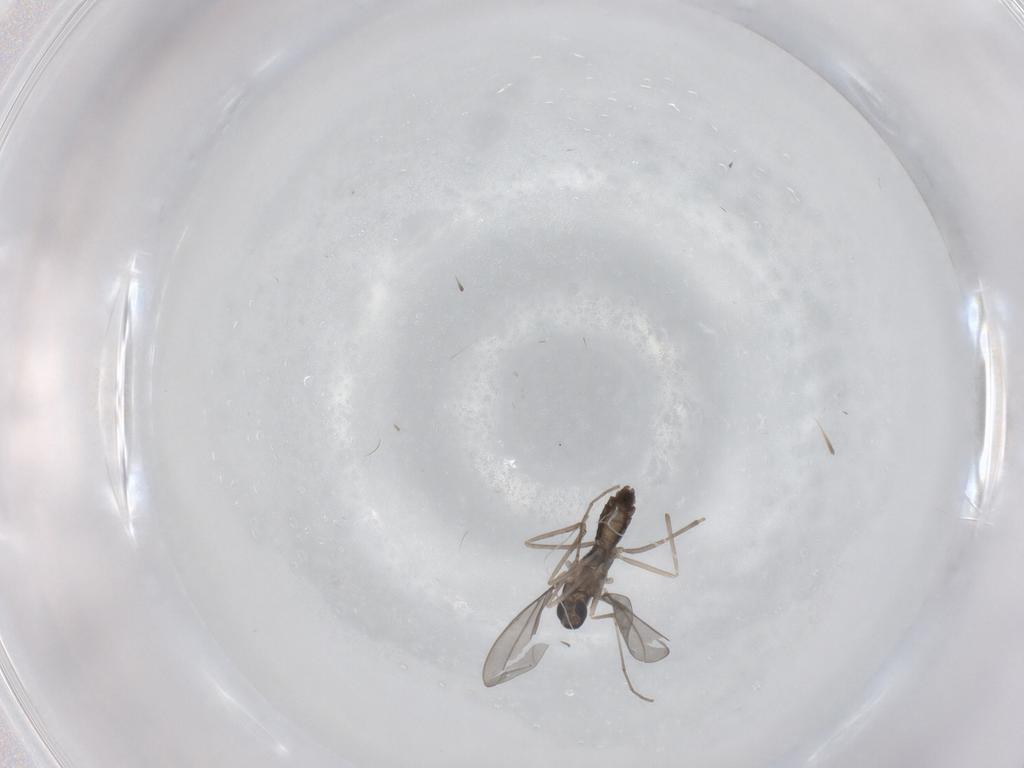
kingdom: Animalia
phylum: Arthropoda
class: Insecta
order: Diptera
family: Cecidomyiidae
